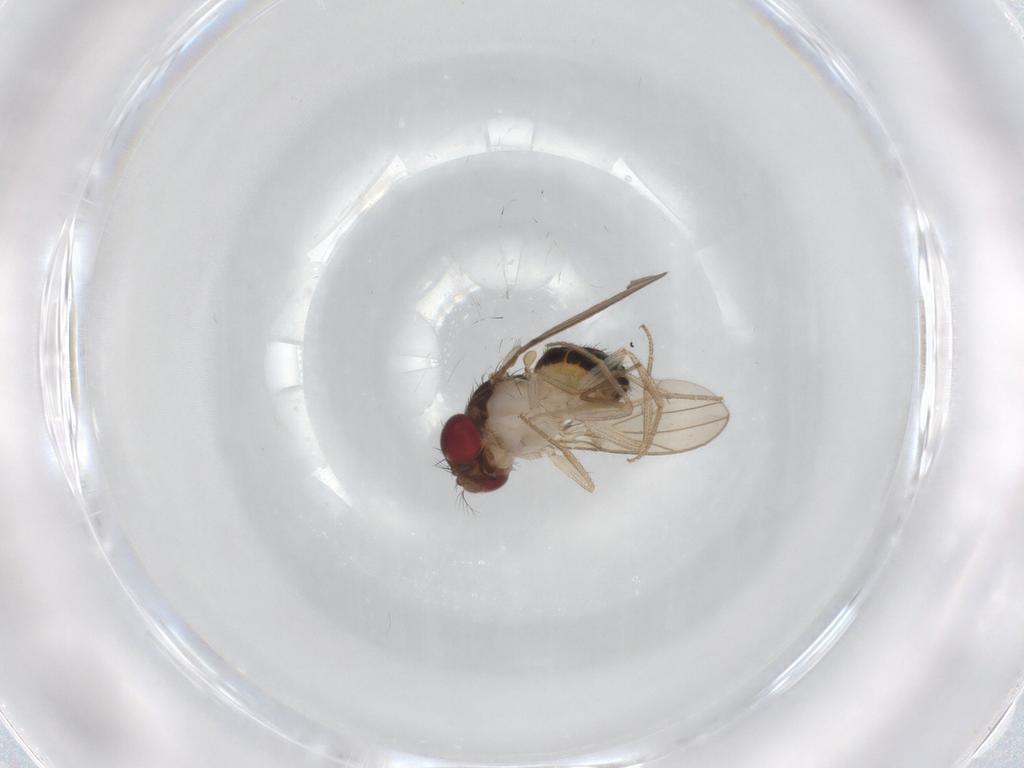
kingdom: Animalia
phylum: Arthropoda
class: Insecta
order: Diptera
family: Drosophilidae
